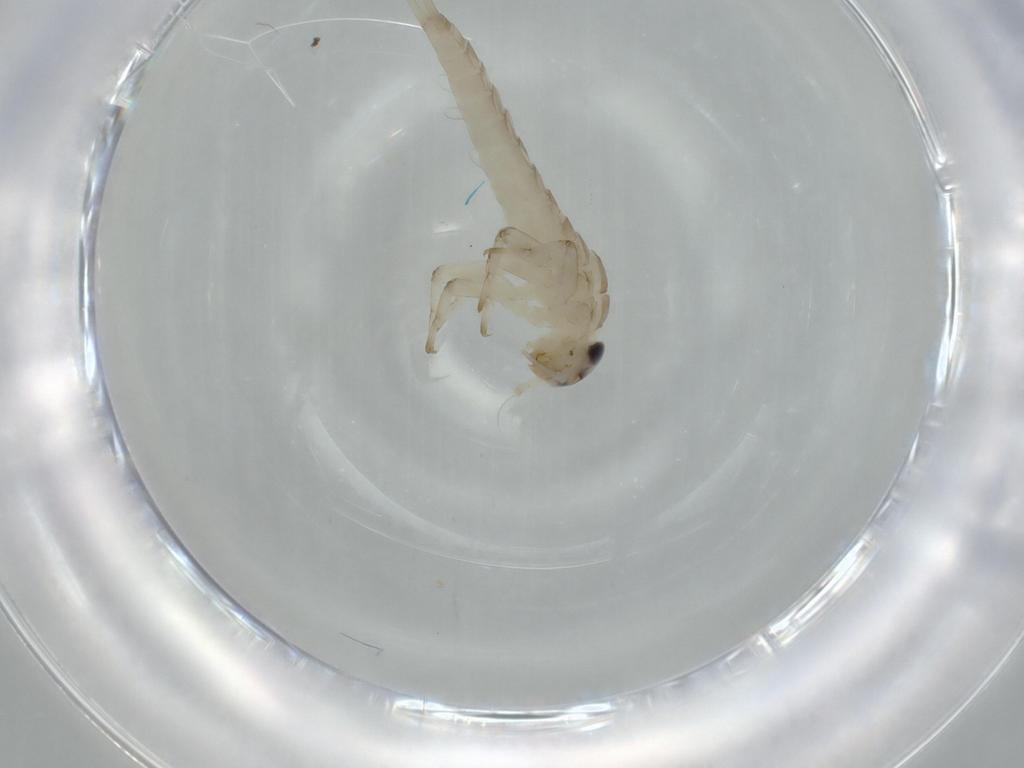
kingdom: Animalia
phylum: Arthropoda
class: Insecta
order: Ephemeroptera
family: Baetidae
